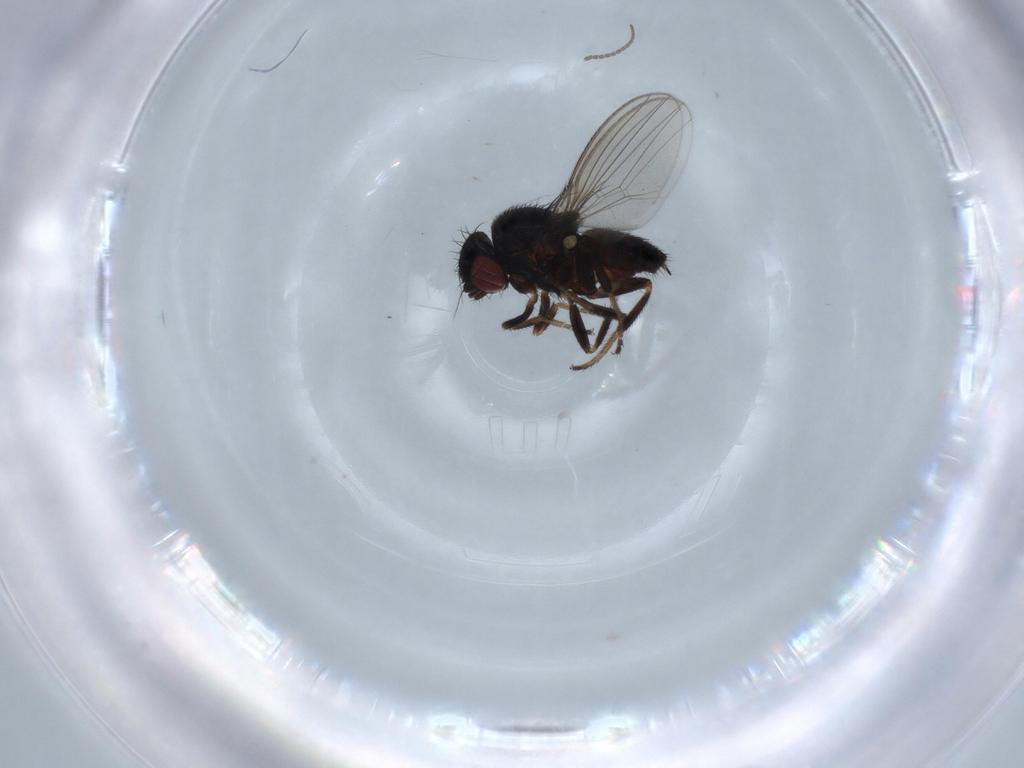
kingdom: Animalia
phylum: Arthropoda
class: Insecta
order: Diptera
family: Milichiidae
